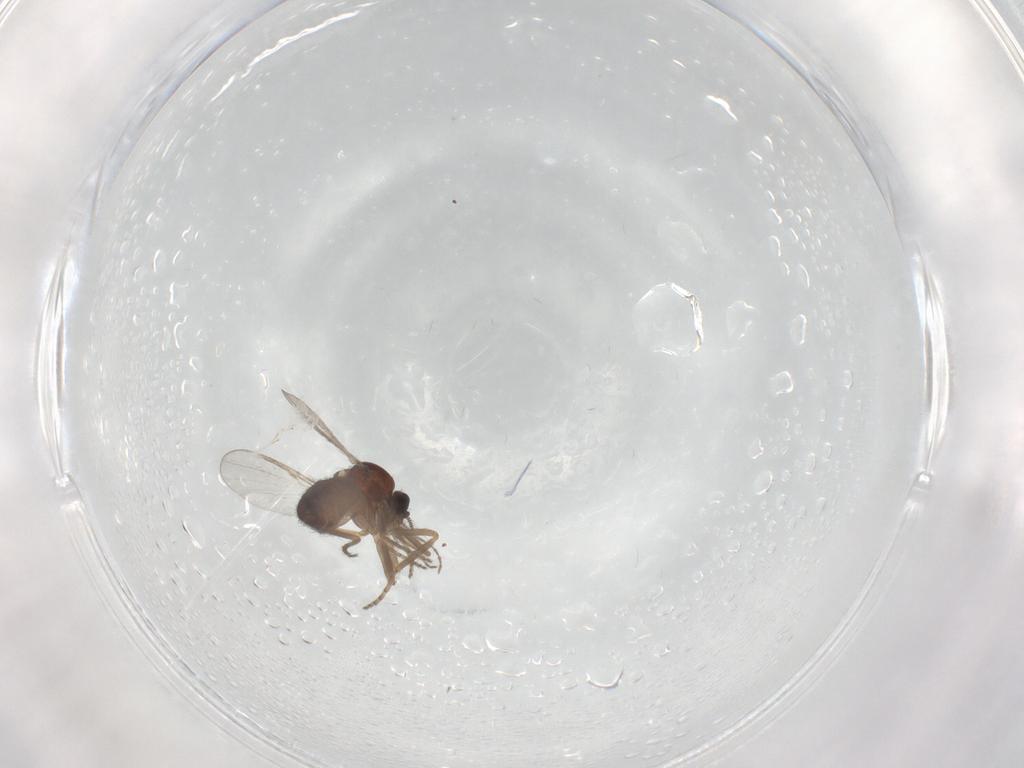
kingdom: Animalia
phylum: Arthropoda
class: Insecta
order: Diptera
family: Ceratopogonidae
